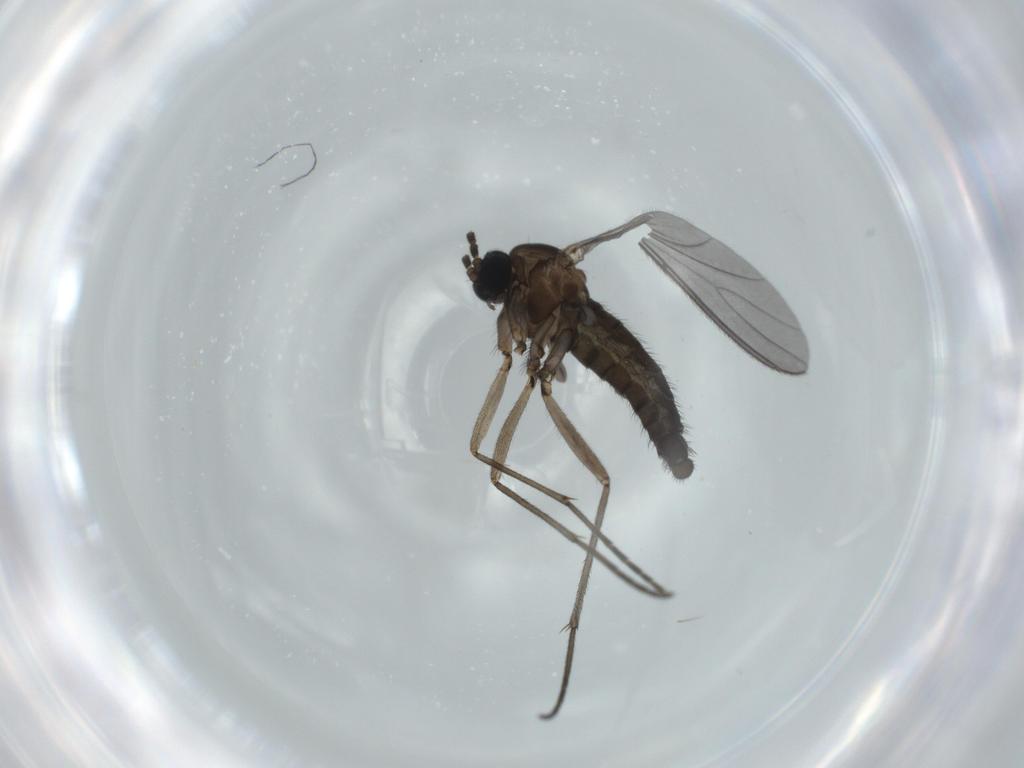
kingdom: Animalia
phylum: Arthropoda
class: Insecta
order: Diptera
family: Sciaridae
